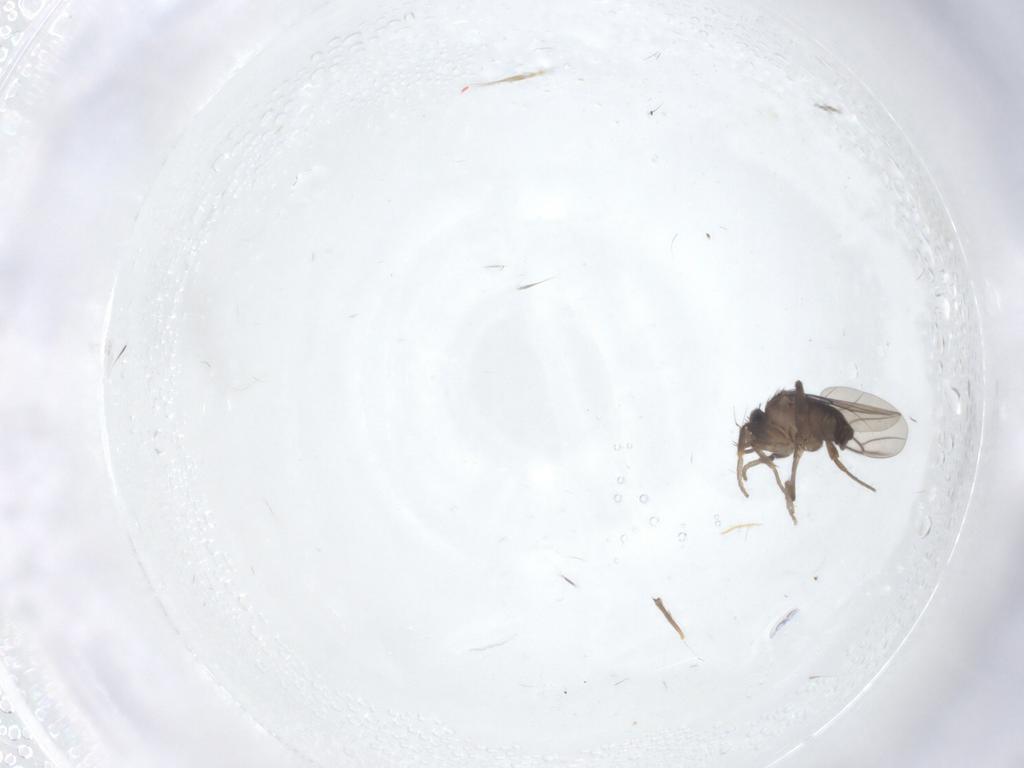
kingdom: Animalia
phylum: Arthropoda
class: Insecta
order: Diptera
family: Phoridae
